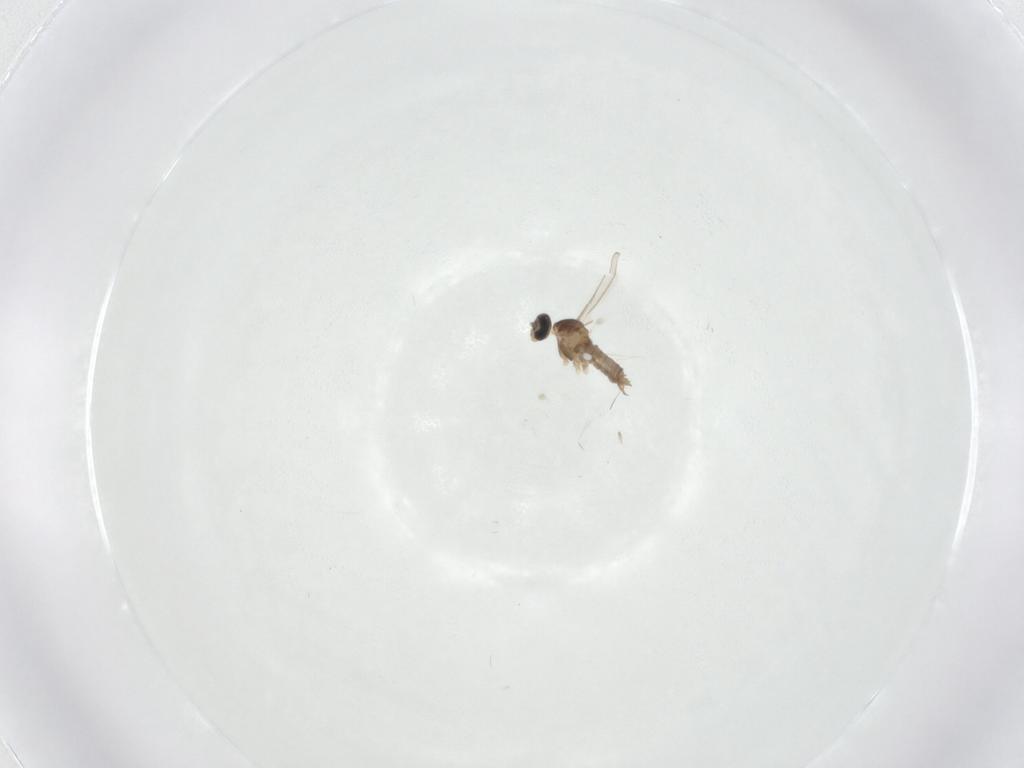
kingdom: Animalia
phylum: Arthropoda
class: Insecta
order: Diptera
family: Cecidomyiidae
